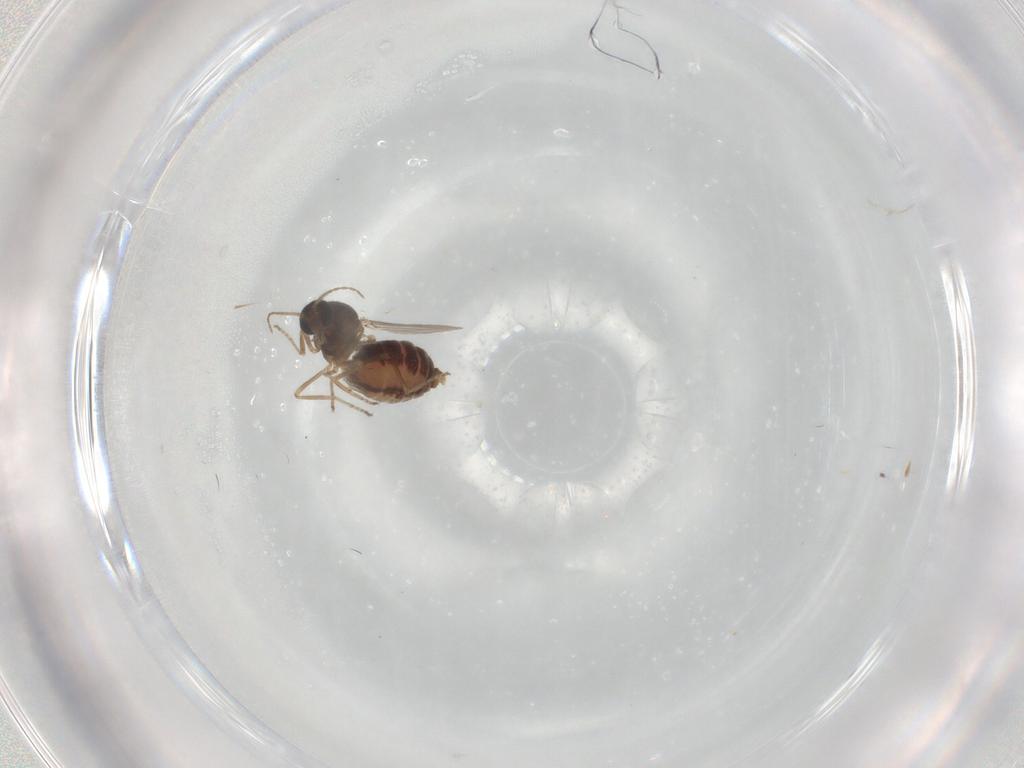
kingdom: Animalia
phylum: Arthropoda
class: Insecta
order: Diptera
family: Ceratopogonidae
